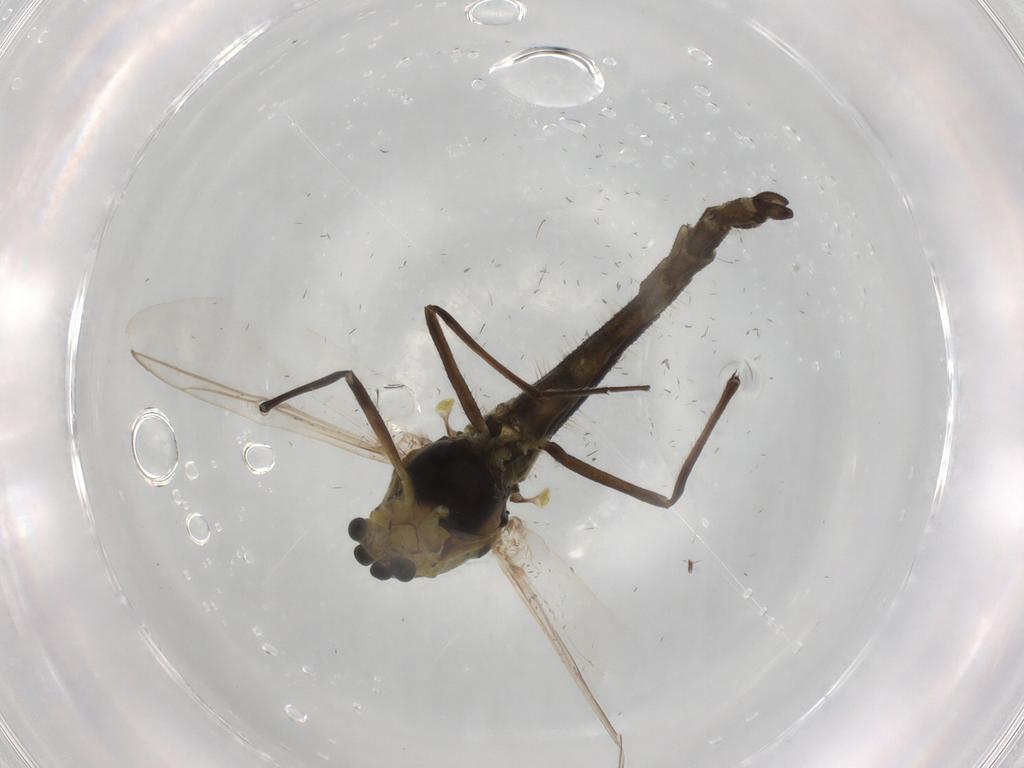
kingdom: Animalia
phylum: Arthropoda
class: Insecta
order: Diptera
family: Chironomidae
